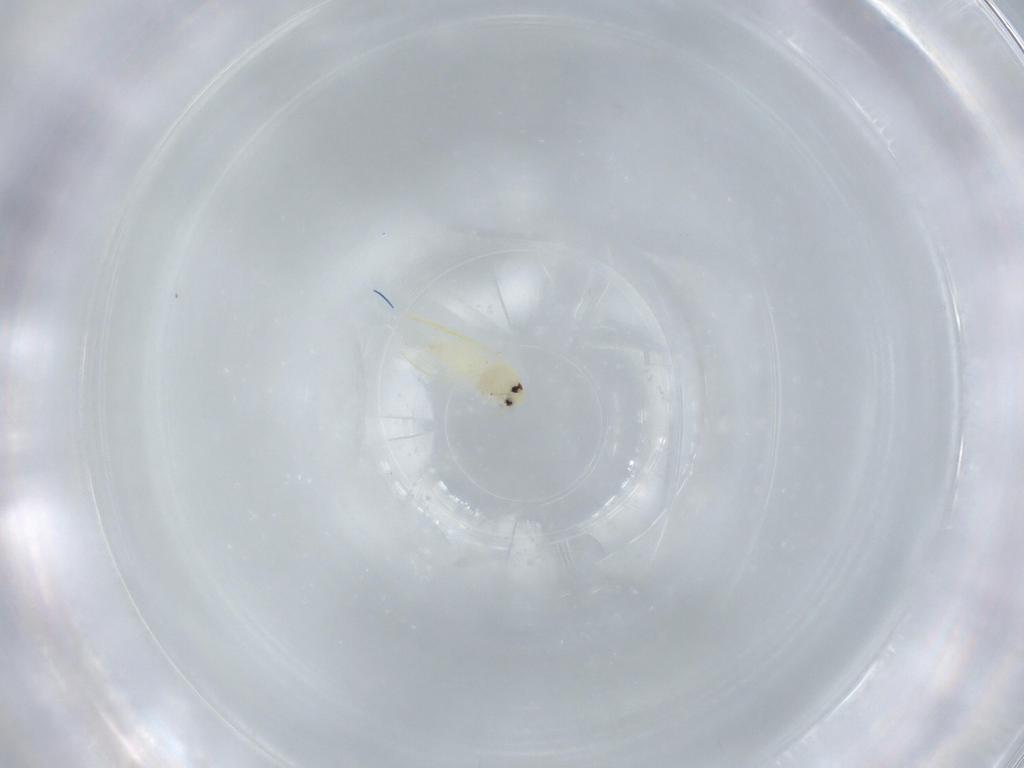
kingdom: Animalia
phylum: Arthropoda
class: Insecta
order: Hemiptera
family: Aleyrodidae
